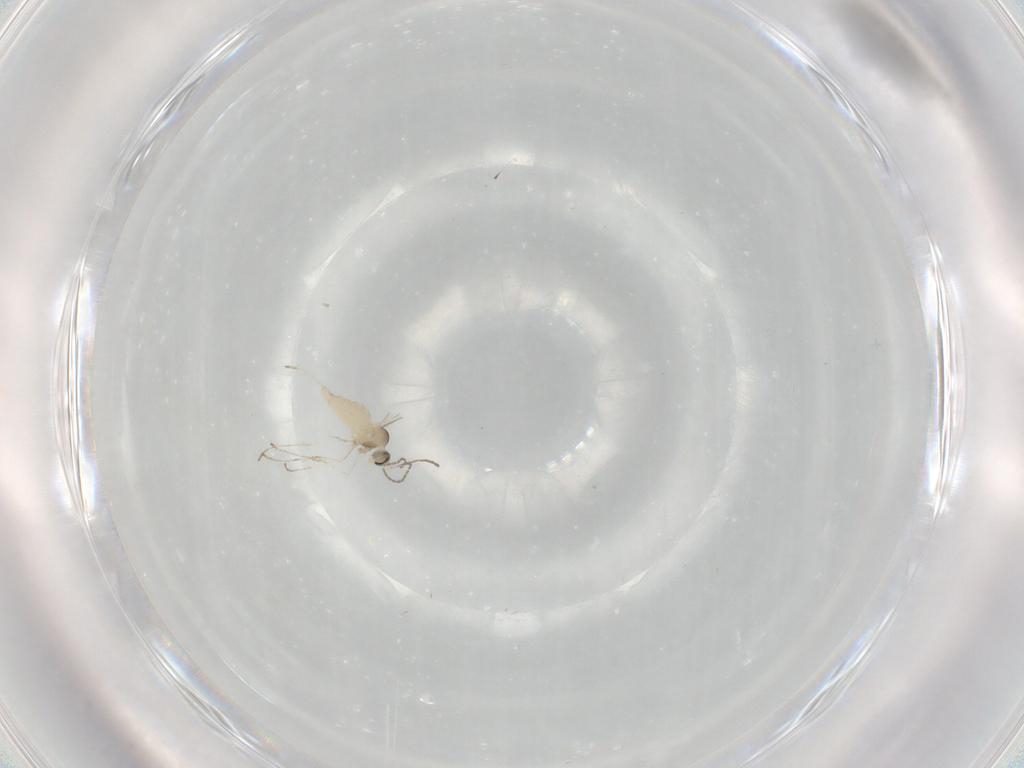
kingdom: Animalia
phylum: Arthropoda
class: Insecta
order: Diptera
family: Cecidomyiidae
